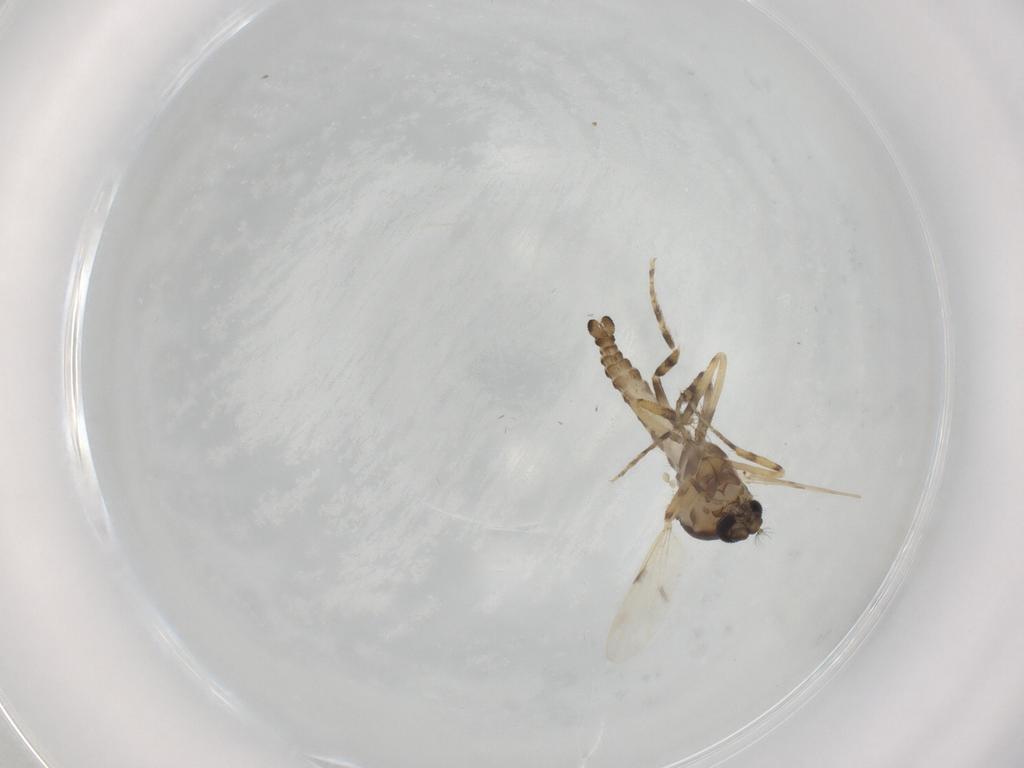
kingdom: Animalia
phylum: Arthropoda
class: Insecta
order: Diptera
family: Ceratopogonidae
